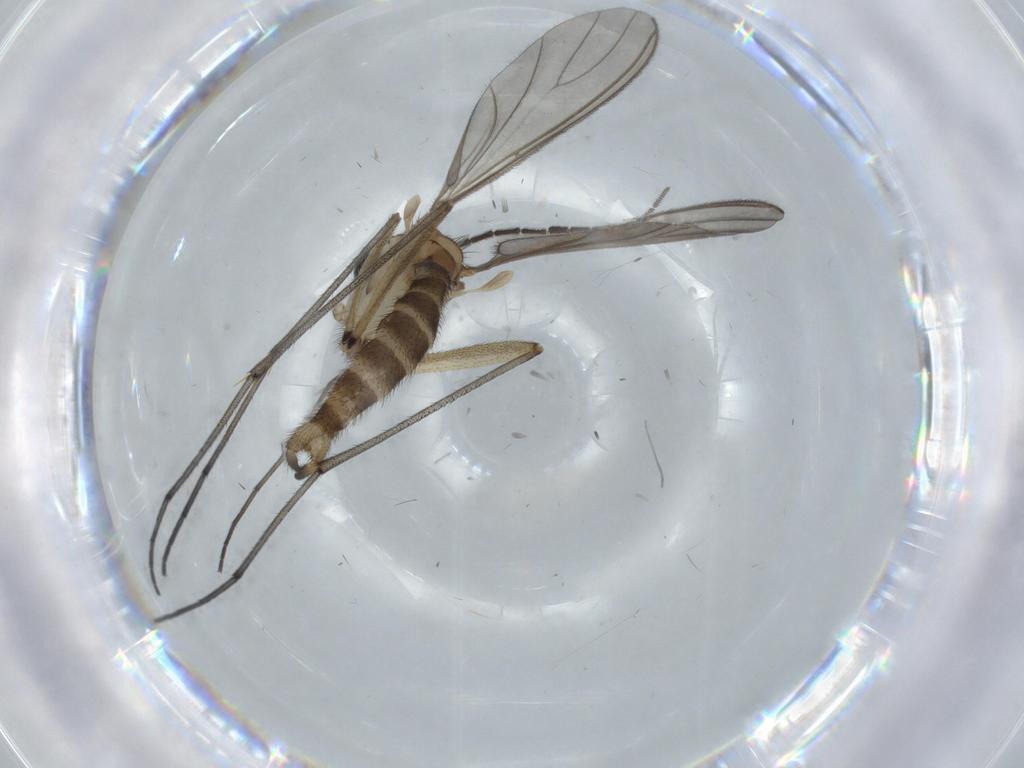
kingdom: Animalia
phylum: Arthropoda
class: Insecta
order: Diptera
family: Sciaridae
